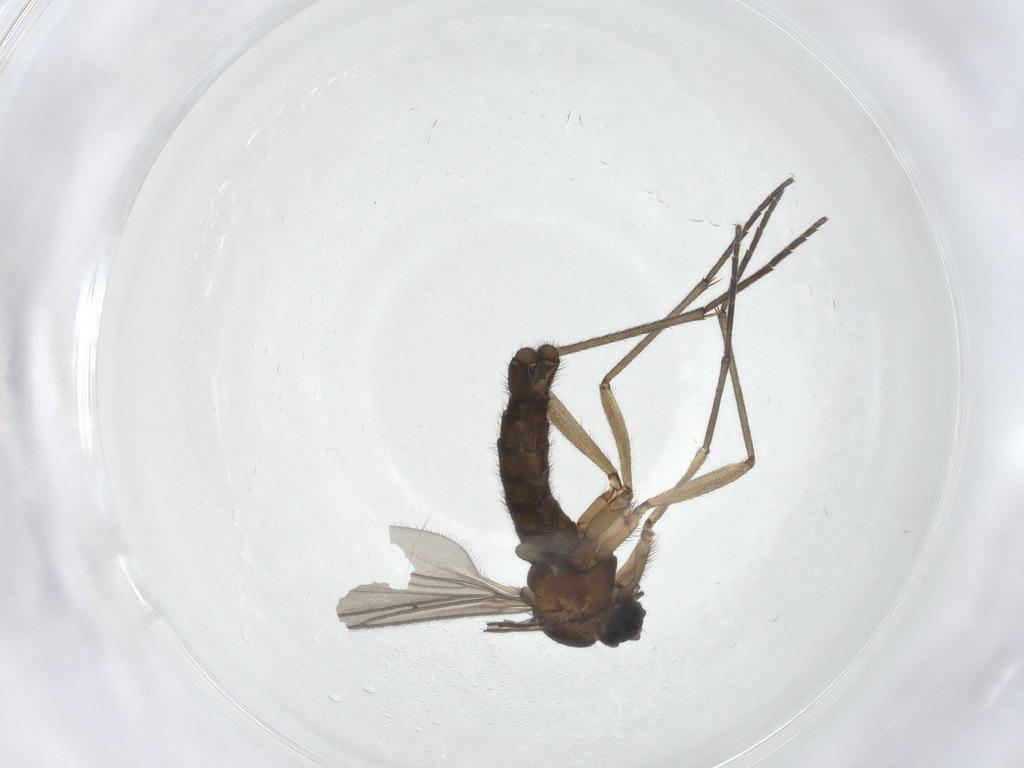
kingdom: Animalia
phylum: Arthropoda
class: Insecta
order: Diptera
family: Sciaridae
